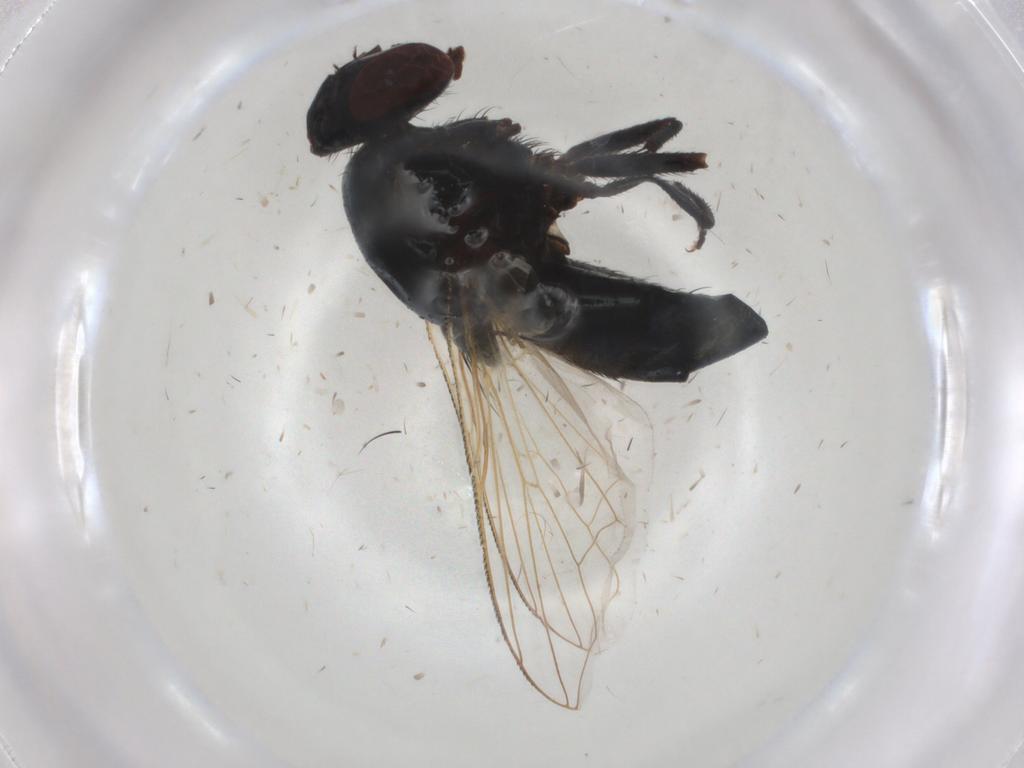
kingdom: Animalia
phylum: Arthropoda
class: Insecta
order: Diptera
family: Muscidae
